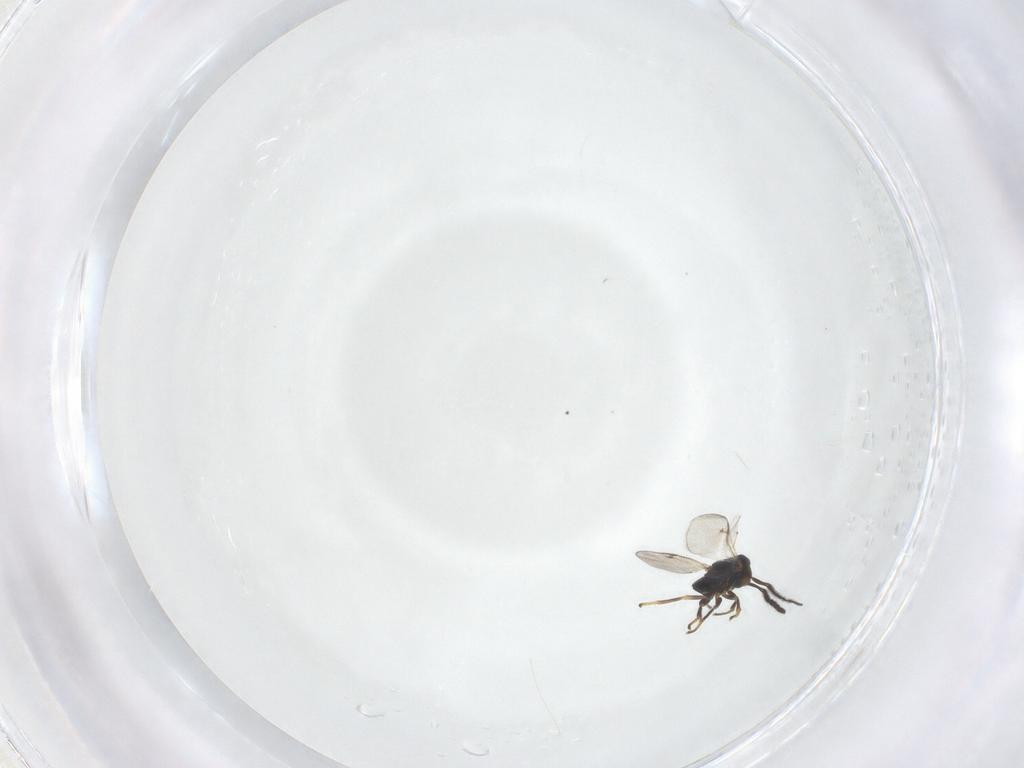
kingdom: Animalia
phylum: Arthropoda
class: Insecta
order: Hymenoptera
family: Encyrtidae
